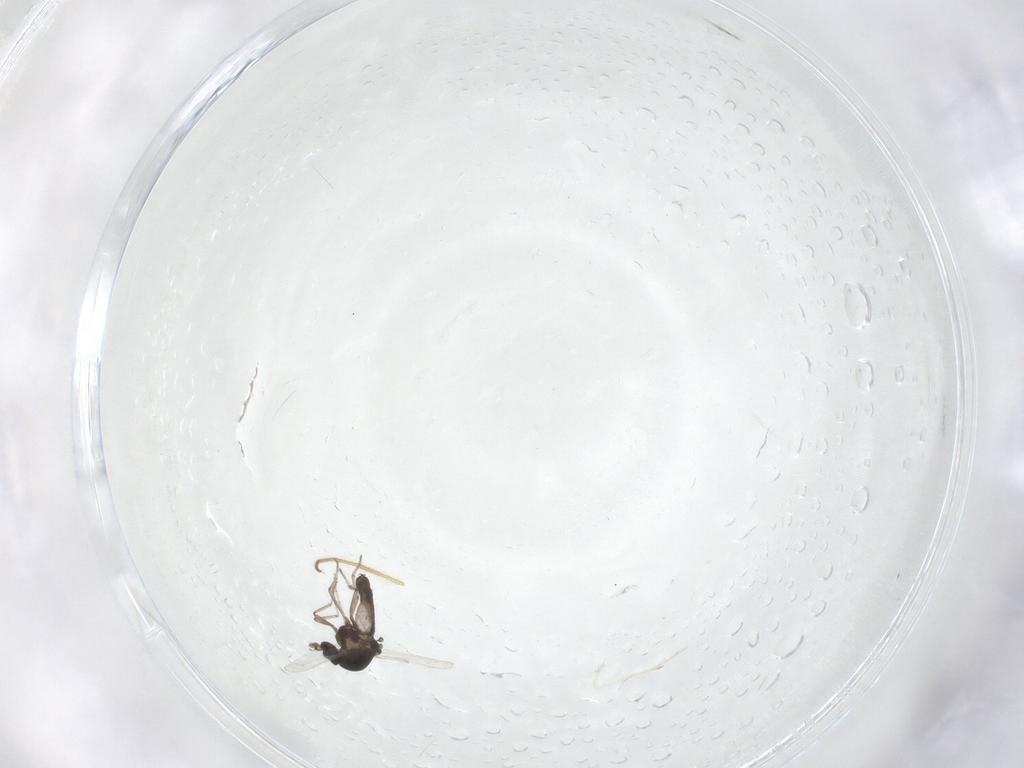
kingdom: Animalia
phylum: Arthropoda
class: Insecta
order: Diptera
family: Ceratopogonidae
